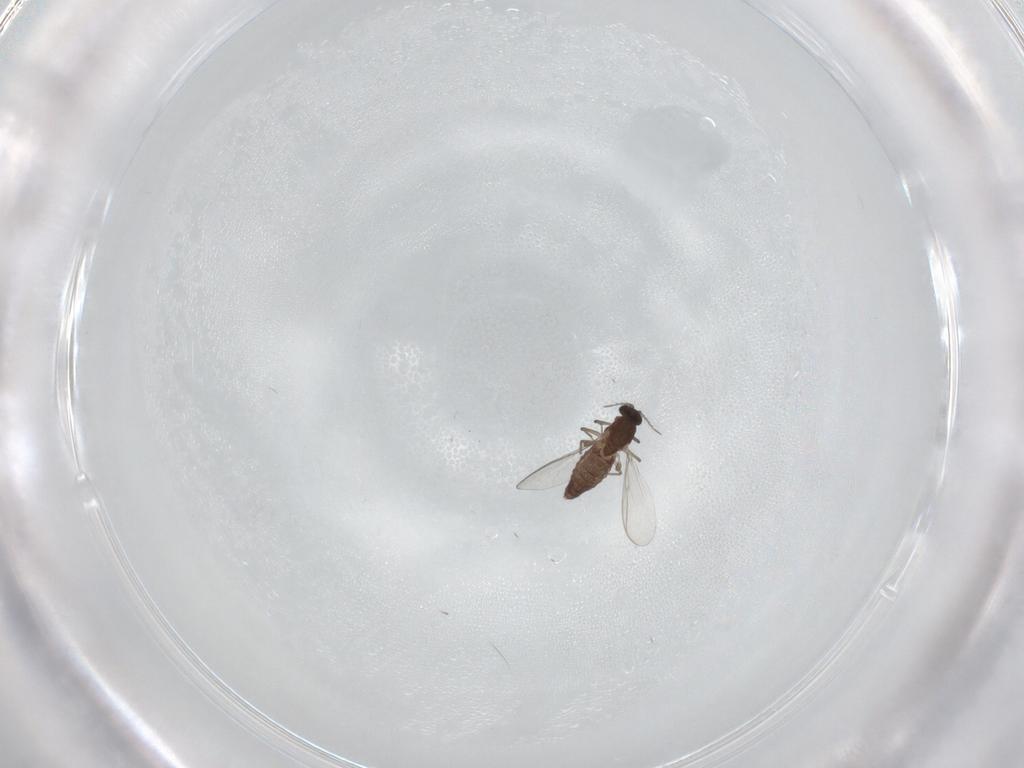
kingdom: Animalia
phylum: Arthropoda
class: Insecta
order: Diptera
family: Chironomidae
